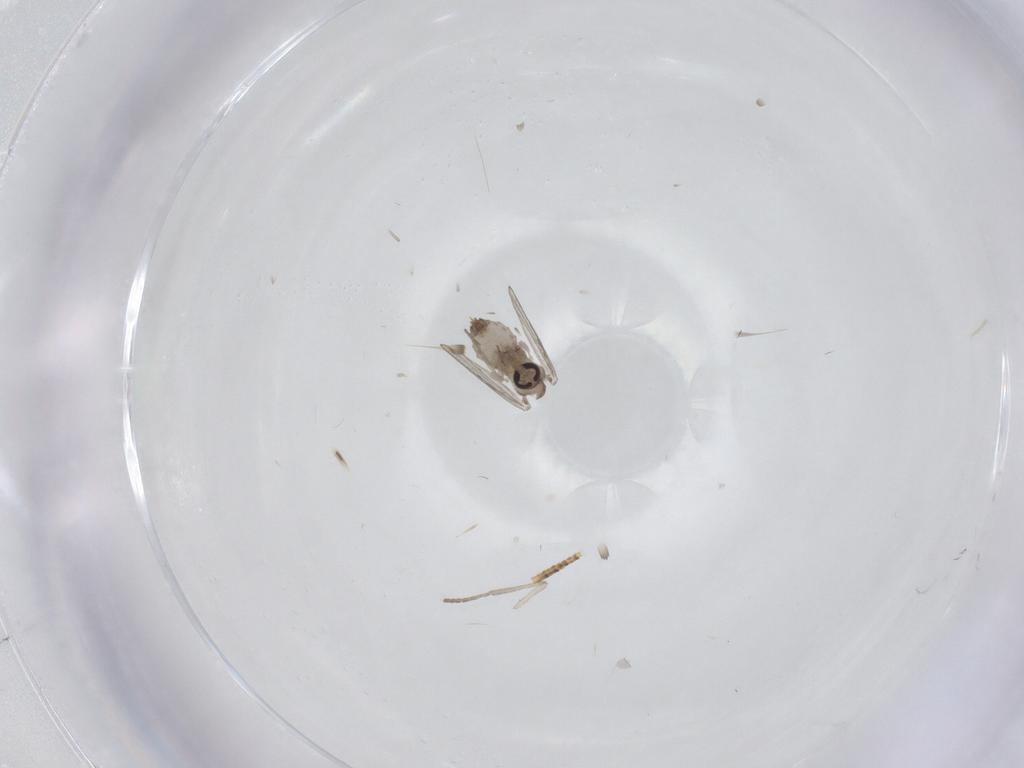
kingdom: Animalia
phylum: Arthropoda
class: Insecta
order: Diptera
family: Psychodidae
